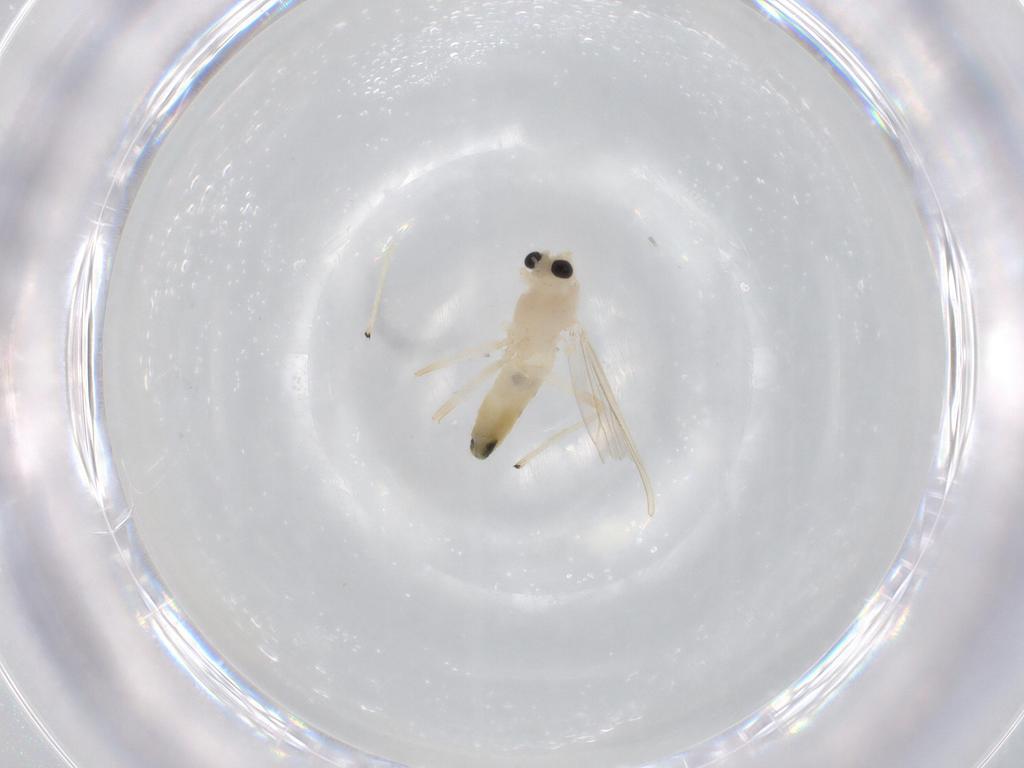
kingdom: Animalia
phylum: Arthropoda
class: Insecta
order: Diptera
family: Chironomidae
